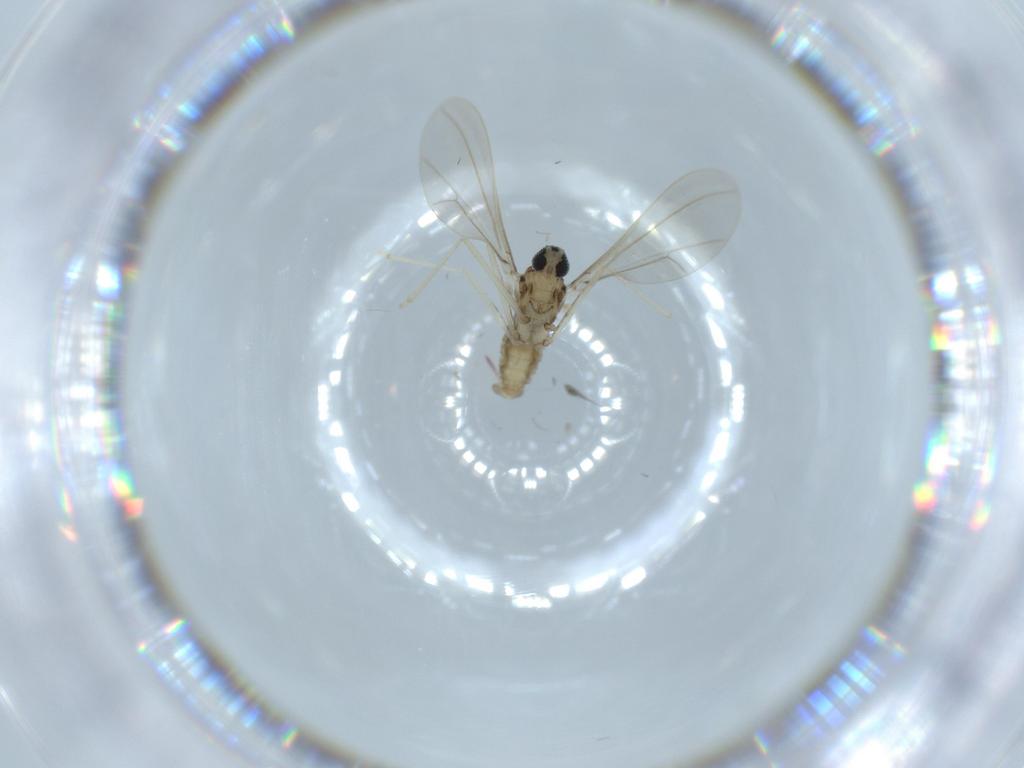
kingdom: Animalia
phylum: Arthropoda
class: Insecta
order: Diptera
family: Cecidomyiidae
